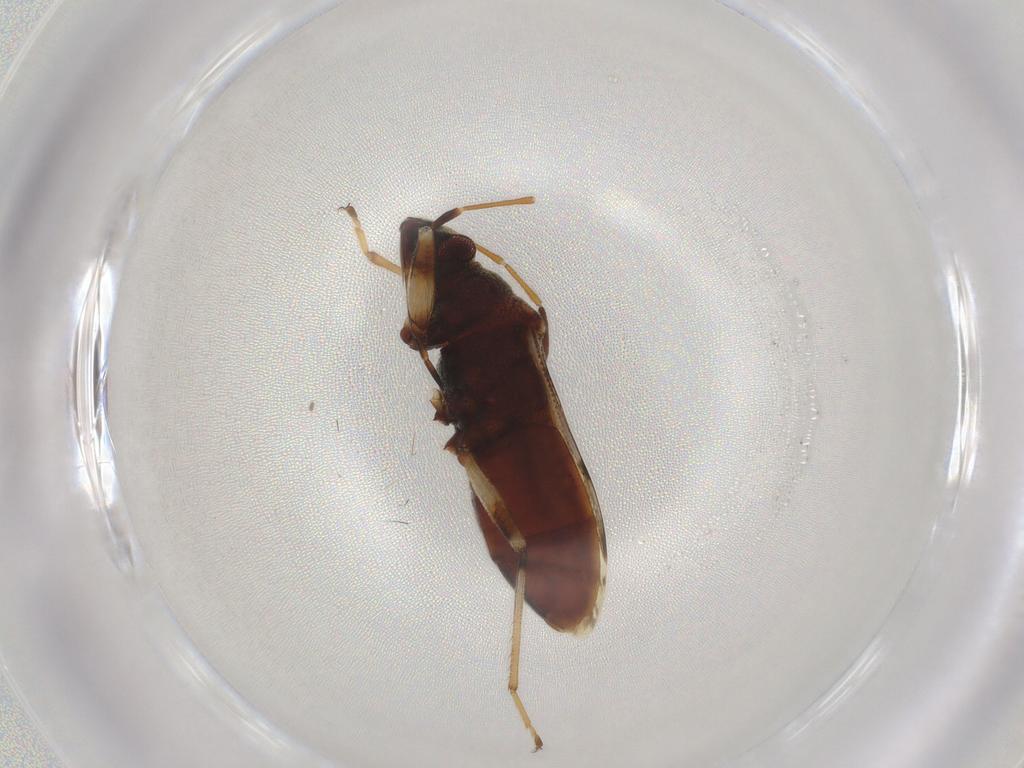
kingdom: Animalia
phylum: Arthropoda
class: Insecta
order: Hemiptera
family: Rhyparochromidae
